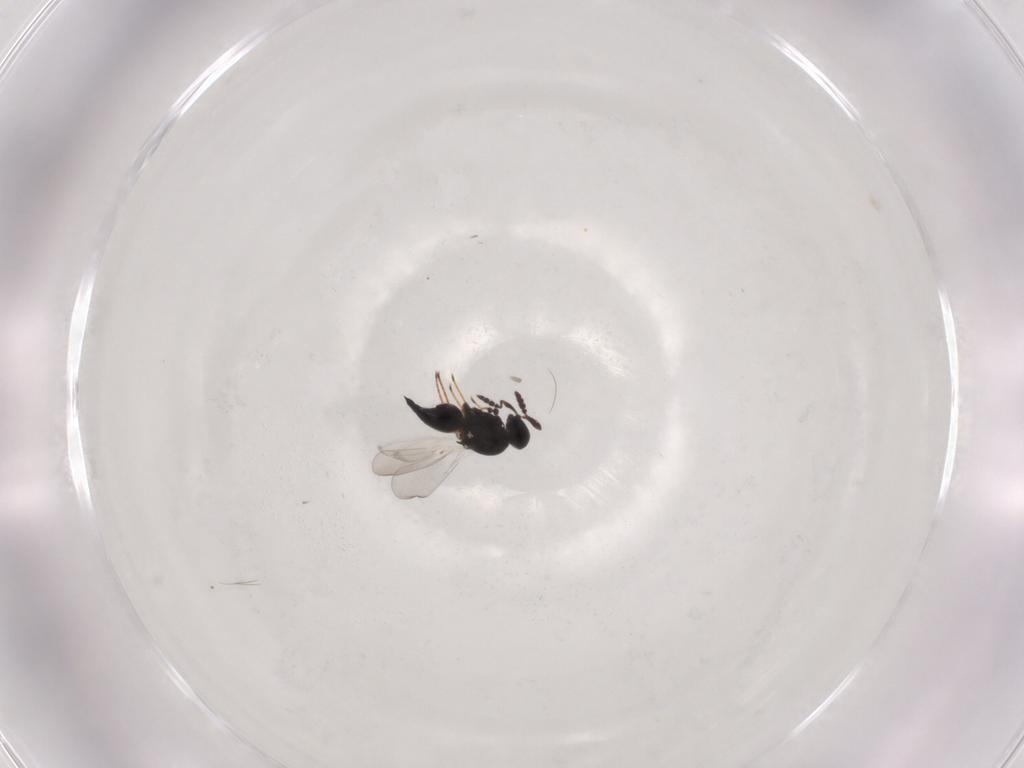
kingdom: Animalia
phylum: Arthropoda
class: Insecta
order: Hymenoptera
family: Platygastridae
